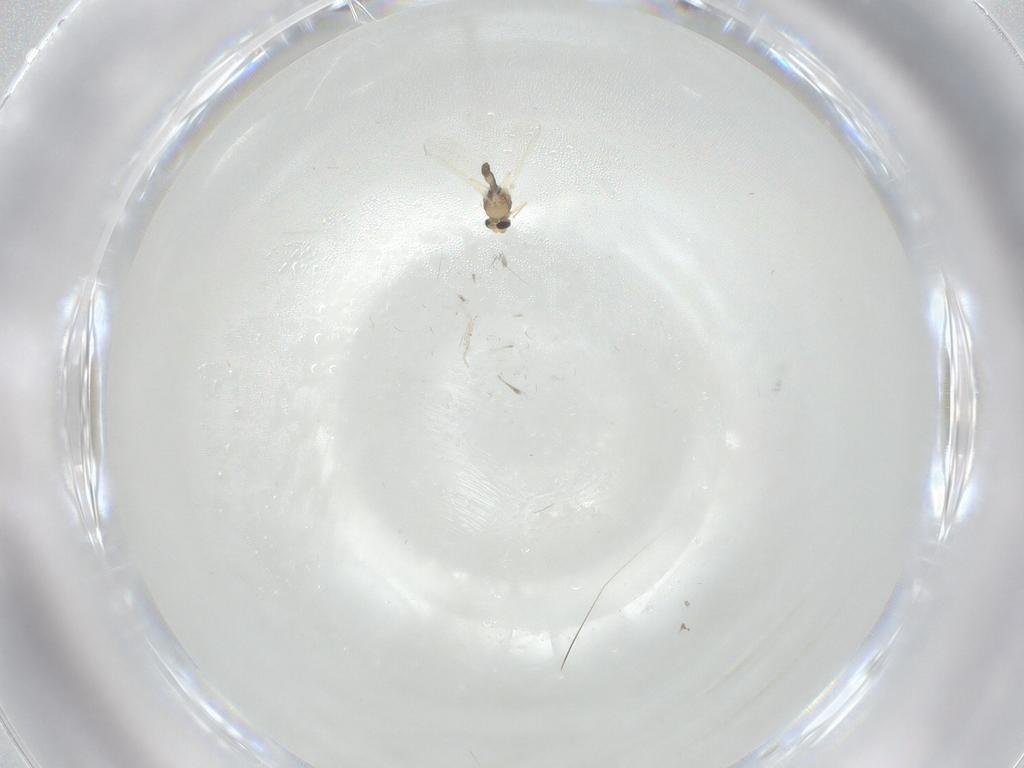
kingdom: Animalia
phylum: Arthropoda
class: Insecta
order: Diptera
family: Chironomidae
